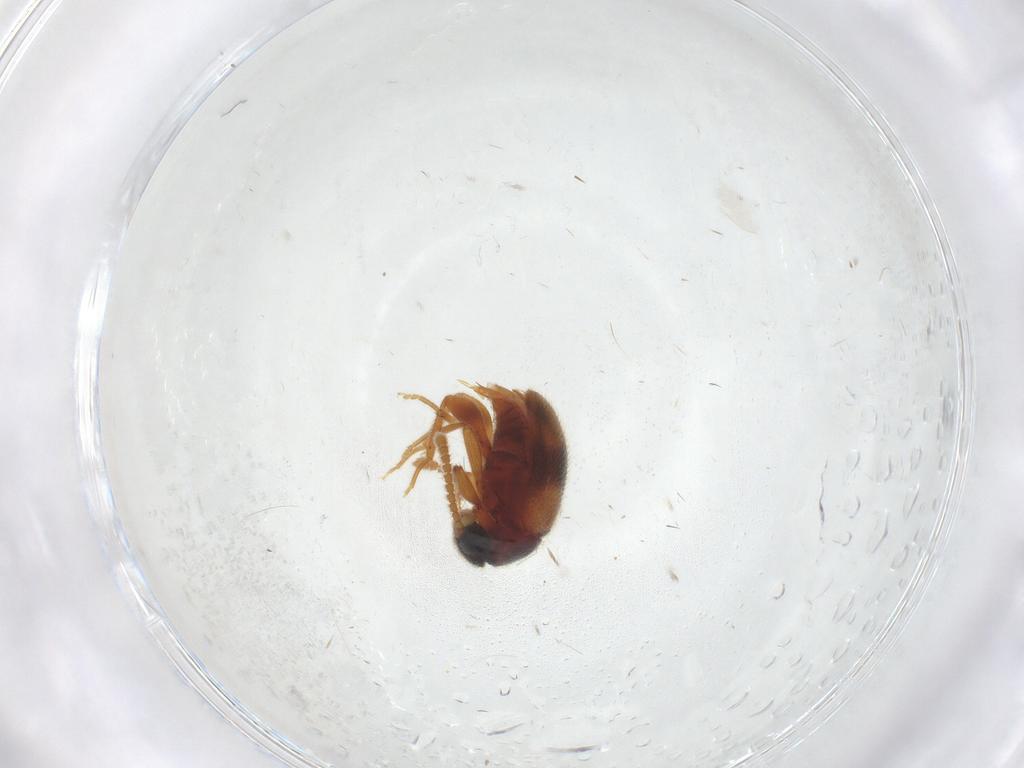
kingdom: Animalia
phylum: Arthropoda
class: Insecta
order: Coleoptera
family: Aderidae
